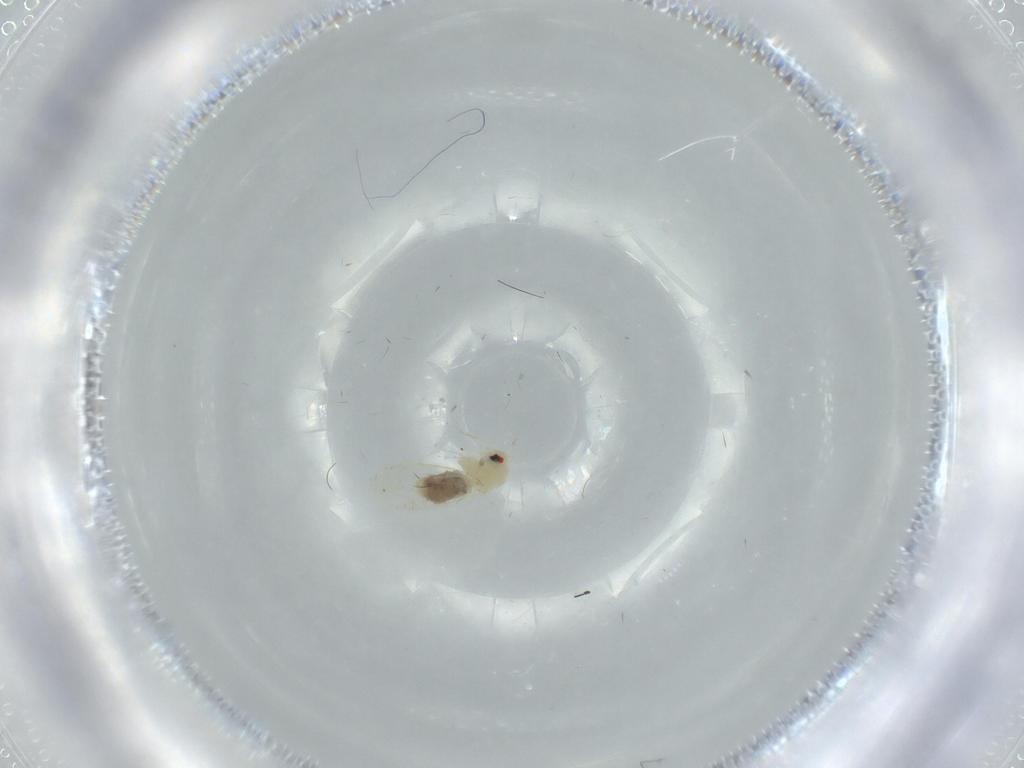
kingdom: Animalia
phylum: Arthropoda
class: Insecta
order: Hemiptera
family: Aleyrodidae
